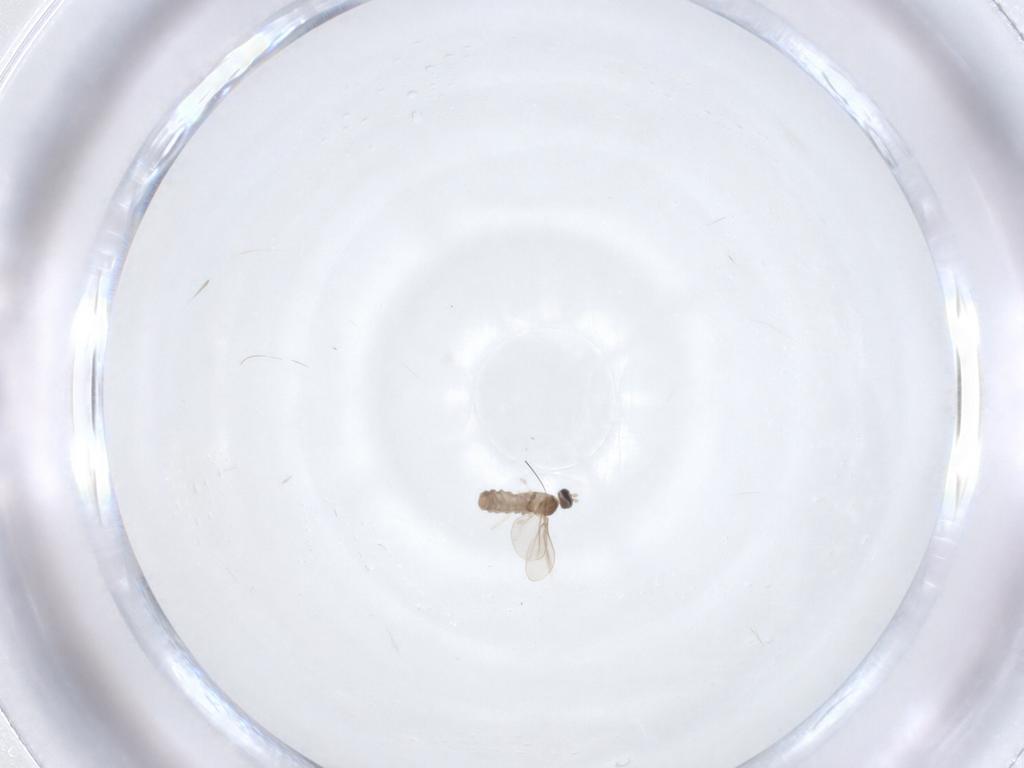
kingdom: Animalia
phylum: Arthropoda
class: Insecta
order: Diptera
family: Cecidomyiidae
